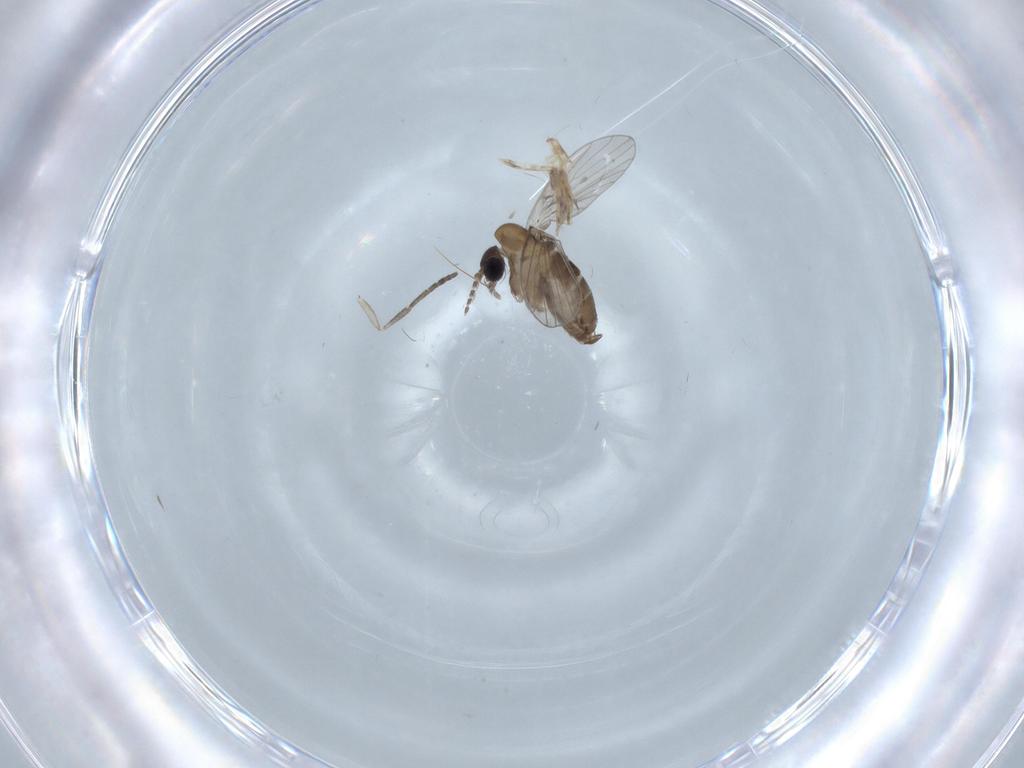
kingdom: Animalia
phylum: Arthropoda
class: Insecta
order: Diptera
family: Psychodidae
